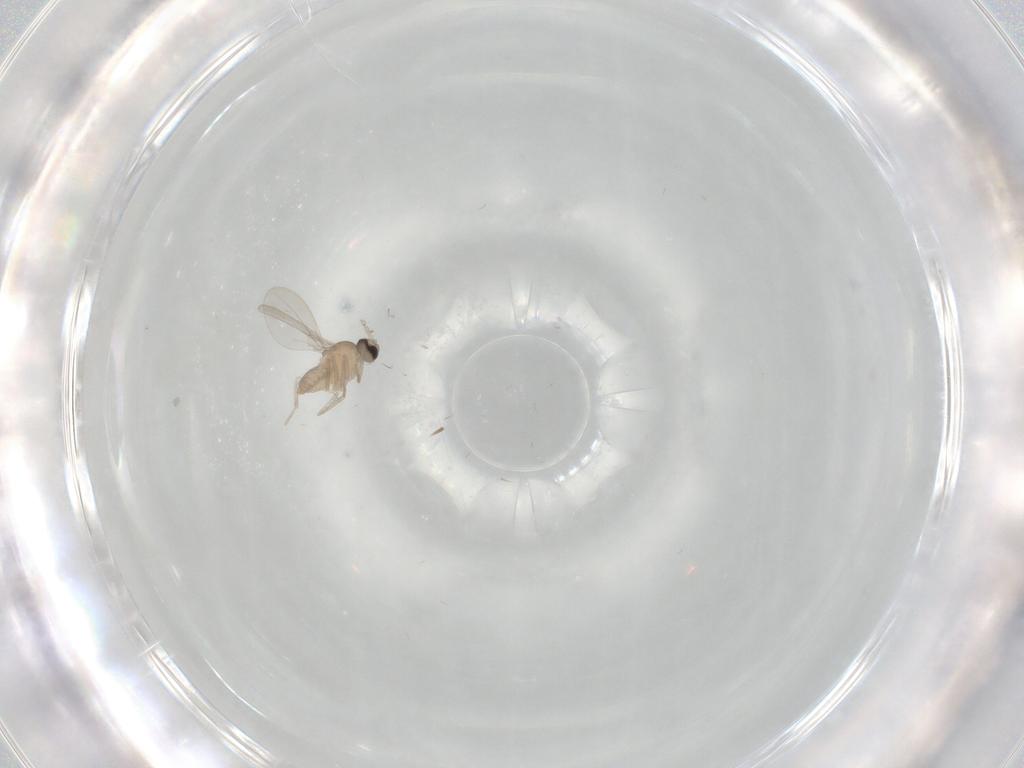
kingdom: Animalia
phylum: Arthropoda
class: Insecta
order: Diptera
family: Cecidomyiidae
